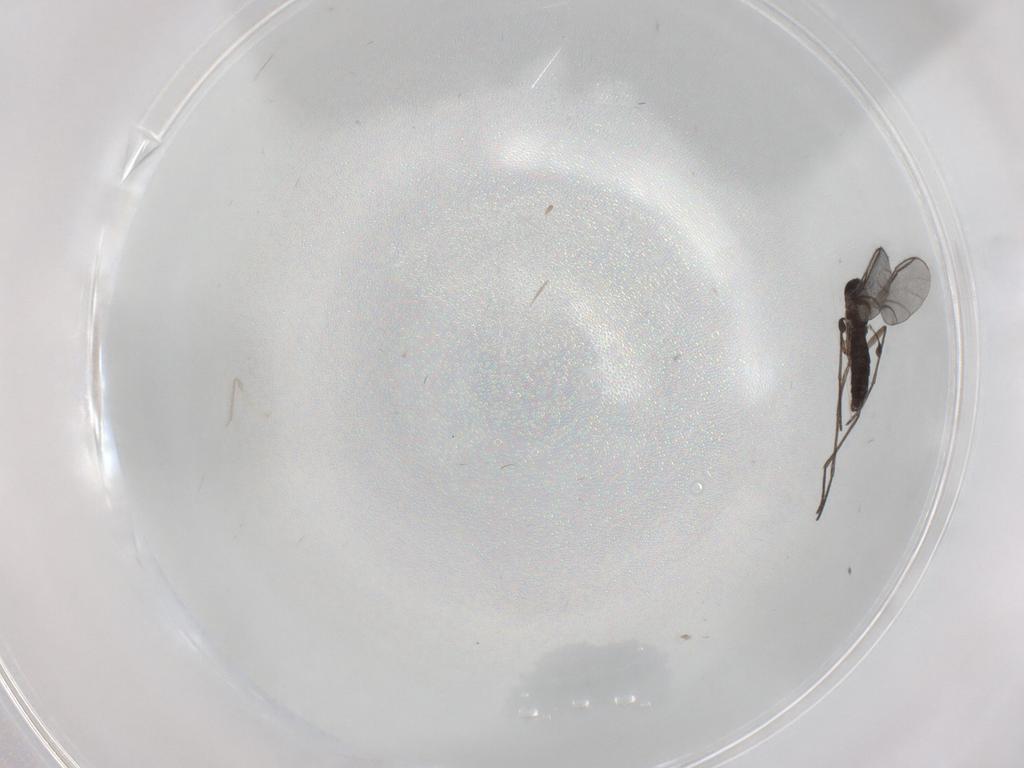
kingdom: Animalia
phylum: Arthropoda
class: Insecta
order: Diptera
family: Cecidomyiidae
